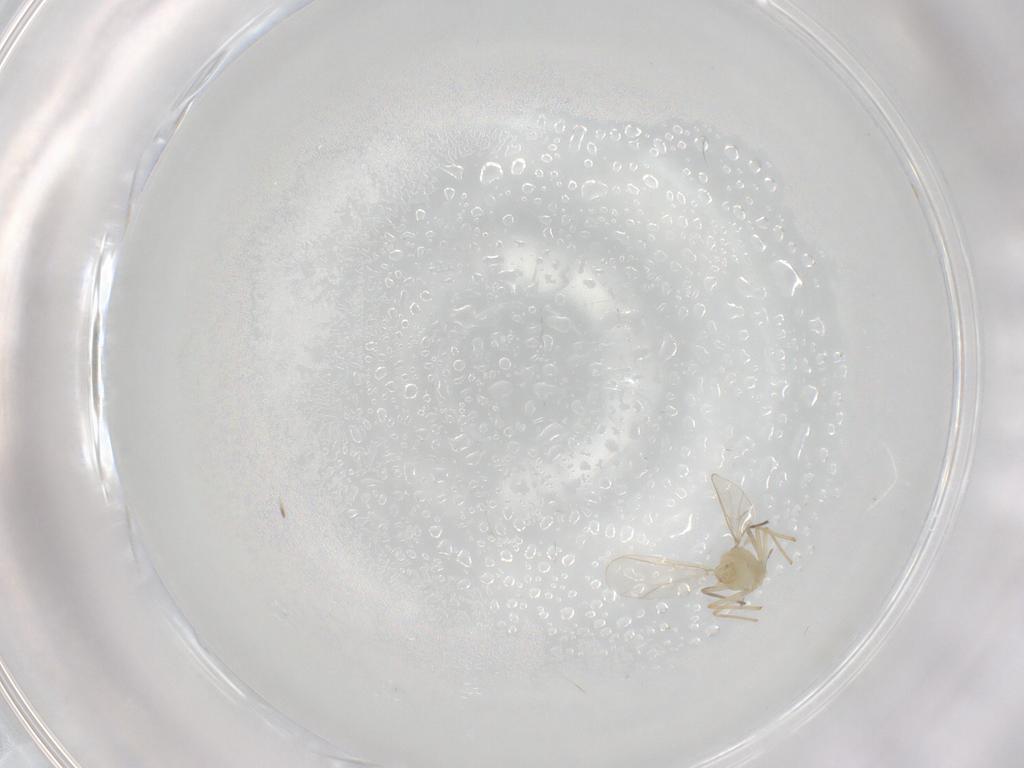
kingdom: Animalia
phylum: Arthropoda
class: Insecta
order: Diptera
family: Chironomidae
